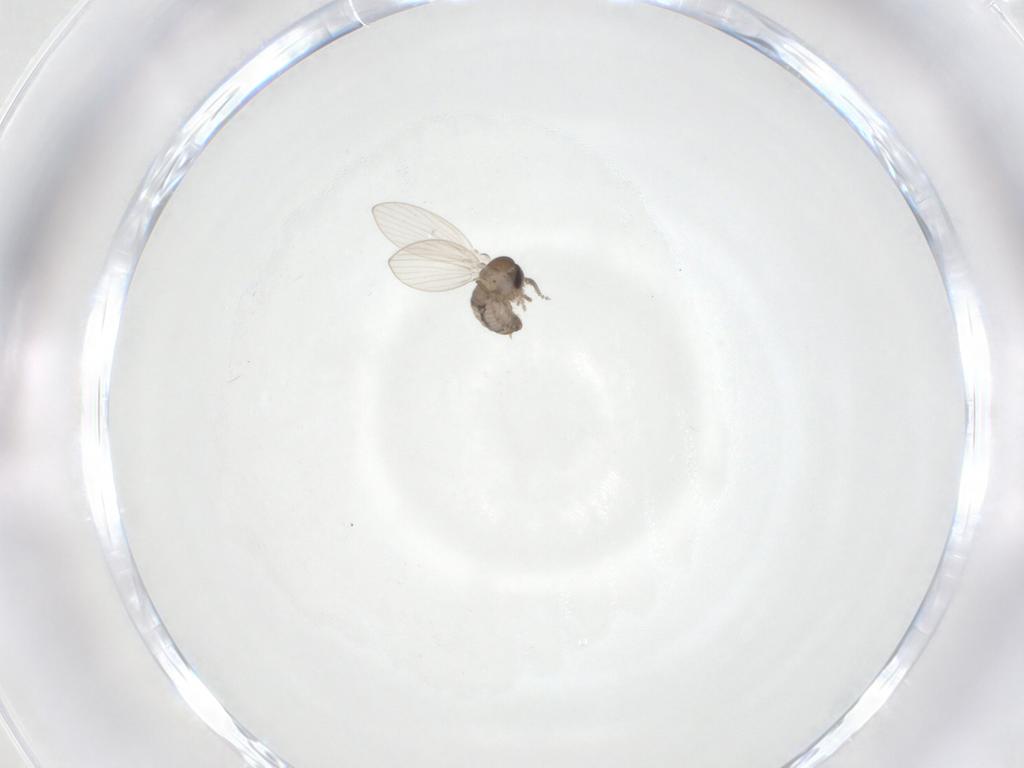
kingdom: Animalia
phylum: Arthropoda
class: Insecta
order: Diptera
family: Psychodidae
